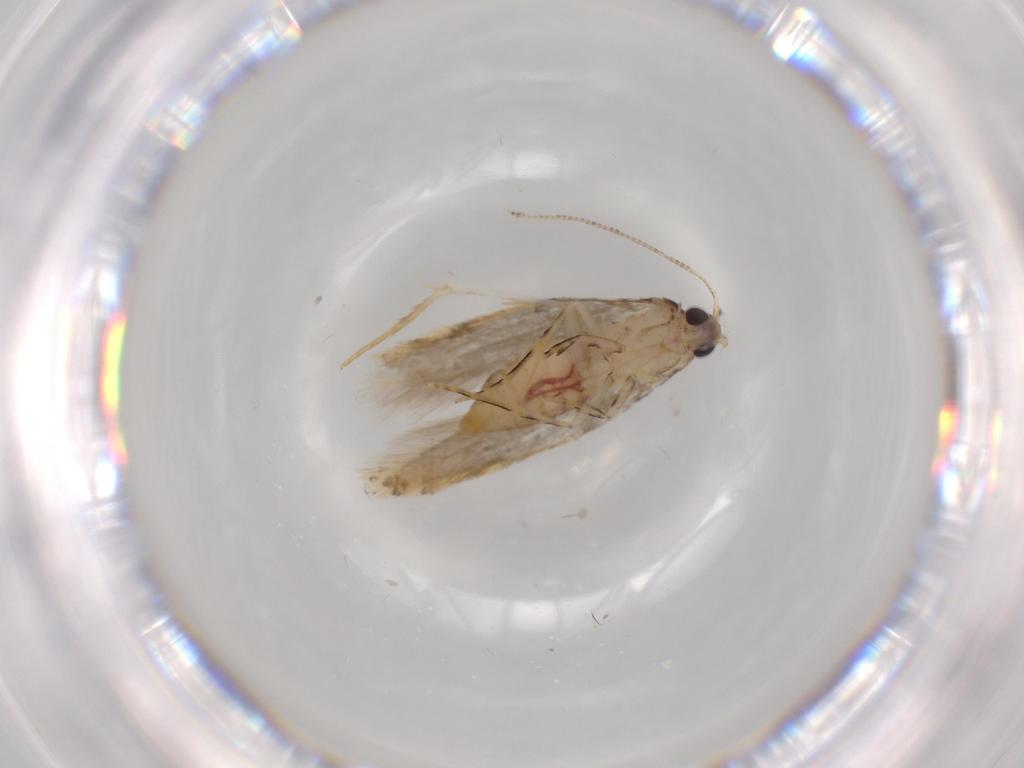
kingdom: Animalia
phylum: Arthropoda
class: Insecta
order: Lepidoptera
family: Tineidae
